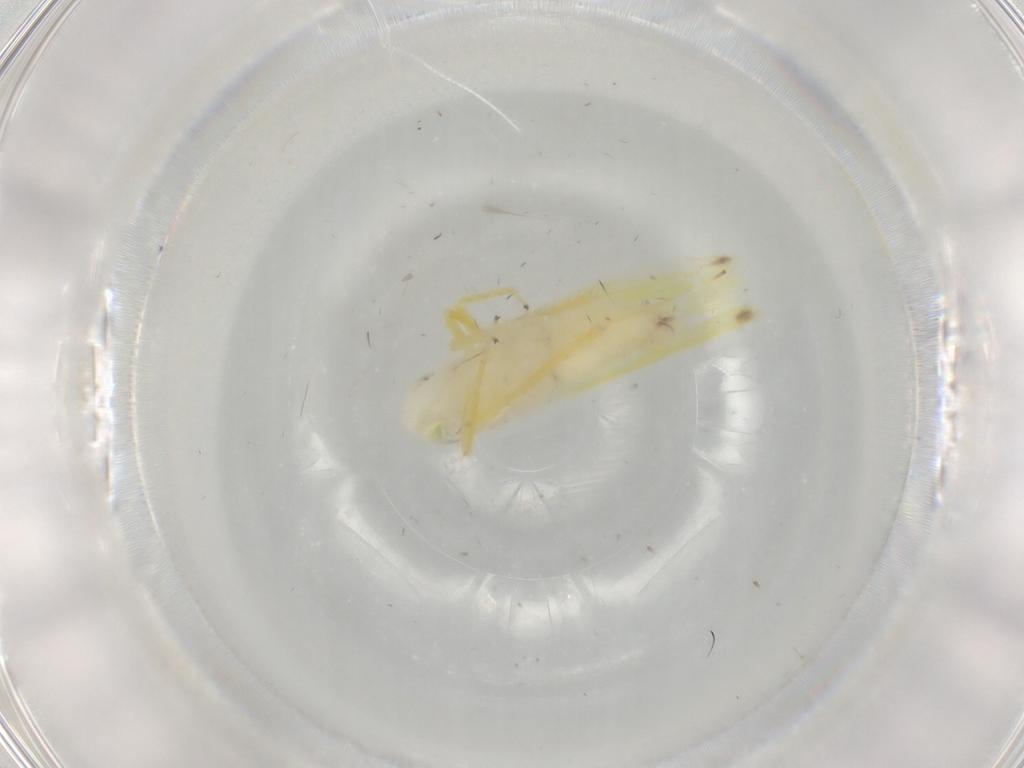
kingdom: Animalia
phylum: Arthropoda
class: Insecta
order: Hemiptera
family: Cicadellidae
